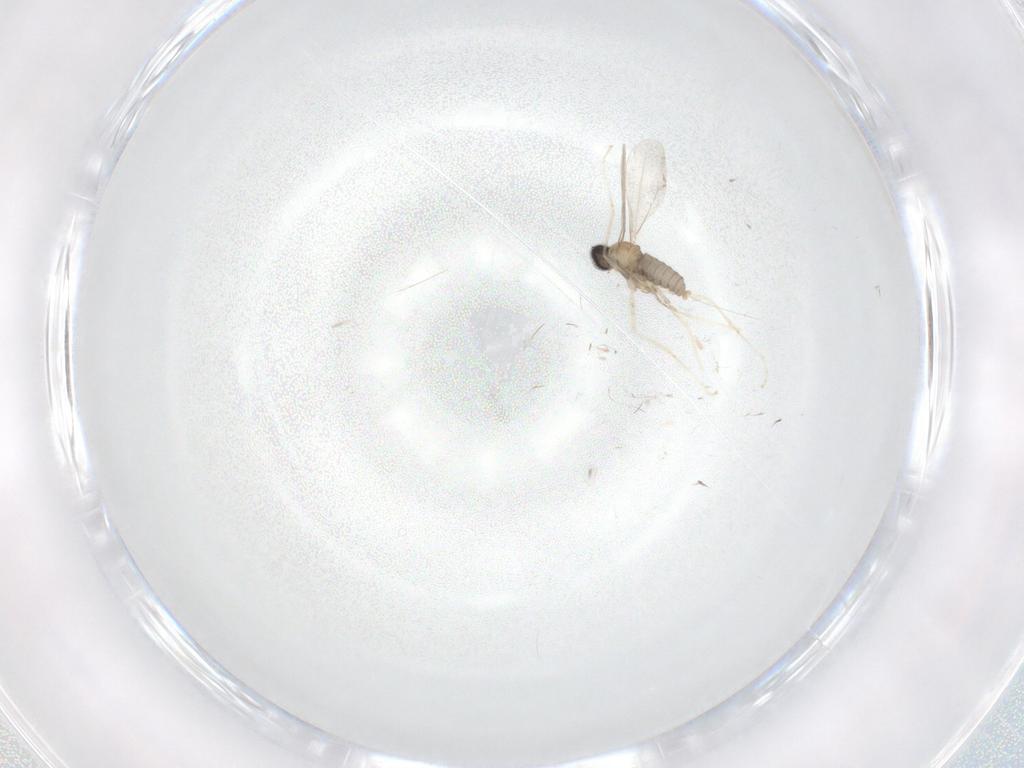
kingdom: Animalia
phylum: Arthropoda
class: Insecta
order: Diptera
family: Cecidomyiidae
